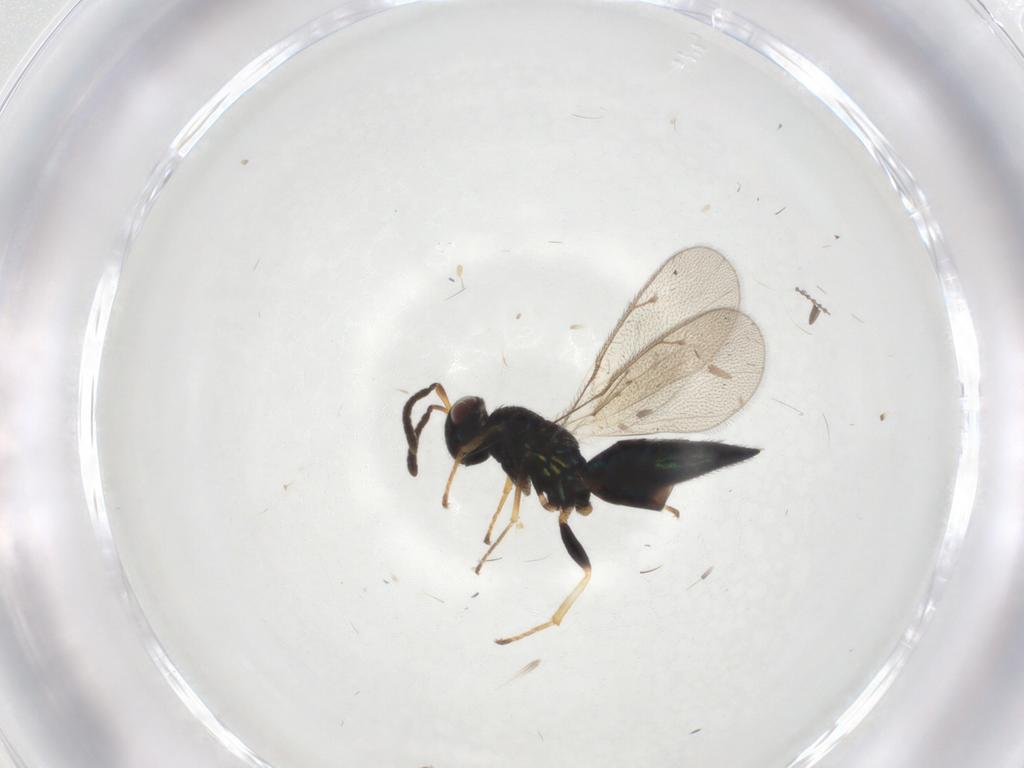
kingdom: Animalia
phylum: Arthropoda
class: Insecta
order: Hymenoptera
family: Pteromalidae
